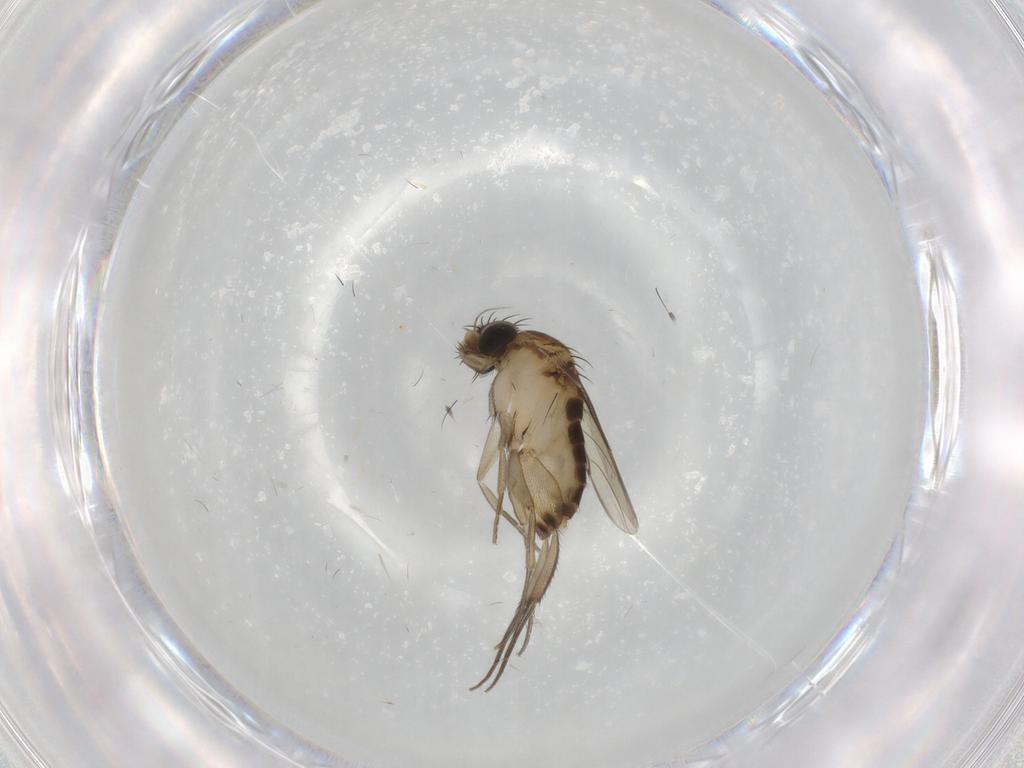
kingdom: Animalia
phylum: Arthropoda
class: Insecta
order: Diptera
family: Phoridae
